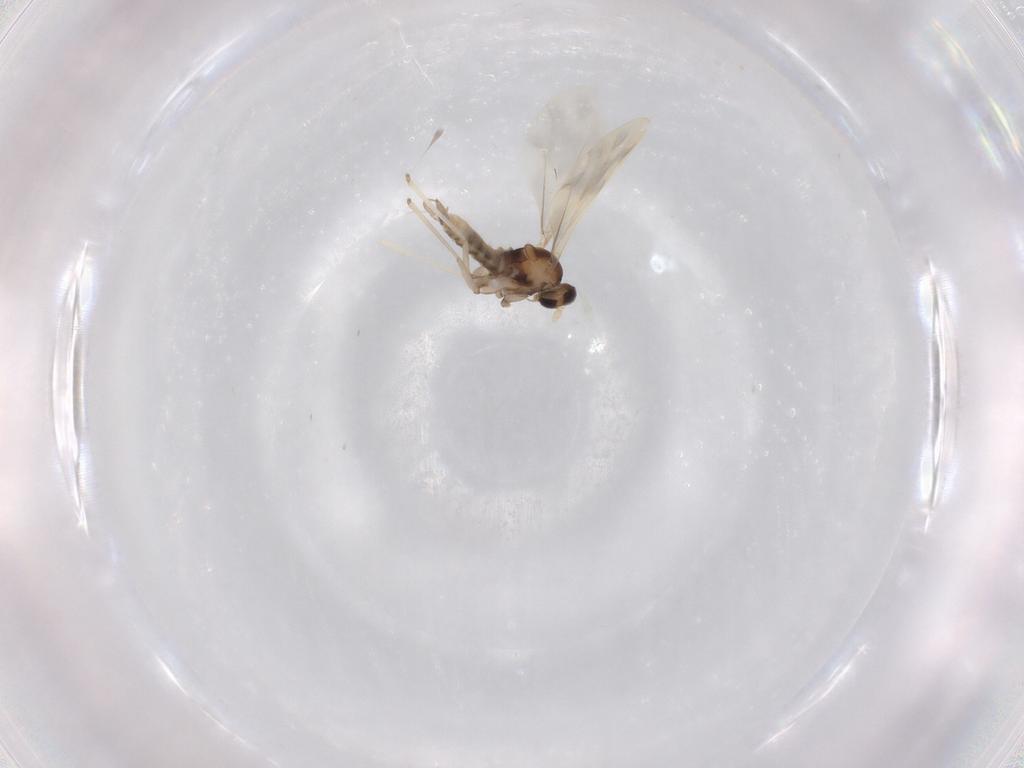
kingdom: Animalia
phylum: Arthropoda
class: Insecta
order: Diptera
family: Cecidomyiidae
